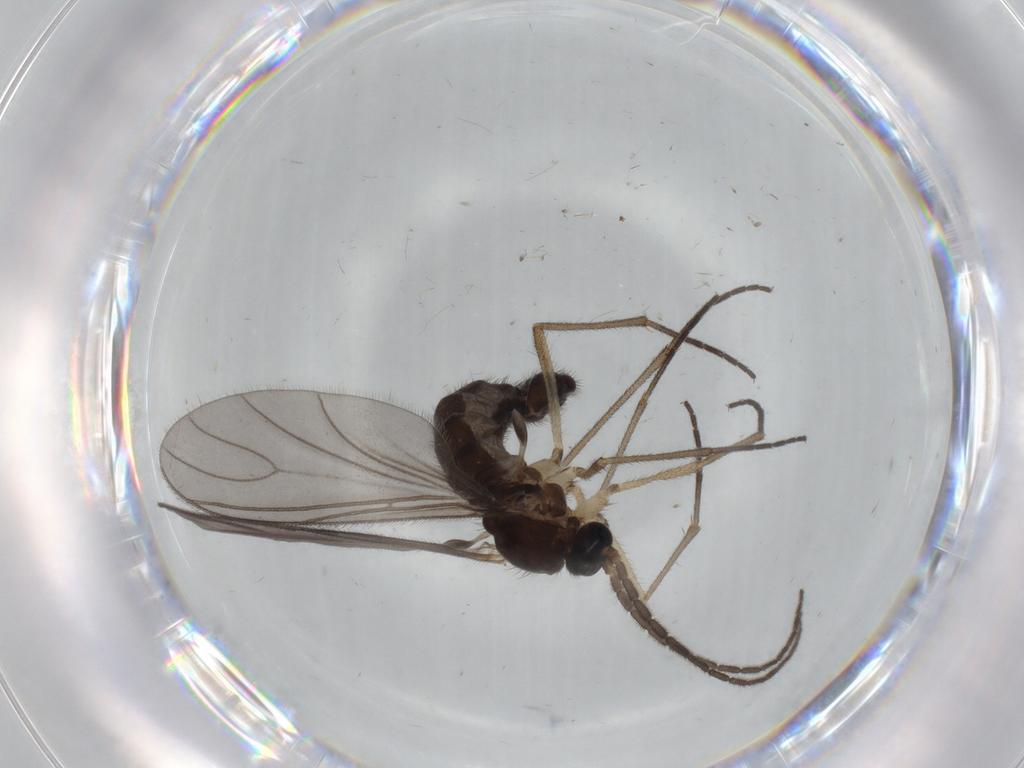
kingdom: Animalia
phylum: Arthropoda
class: Insecta
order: Diptera
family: Sciaridae
